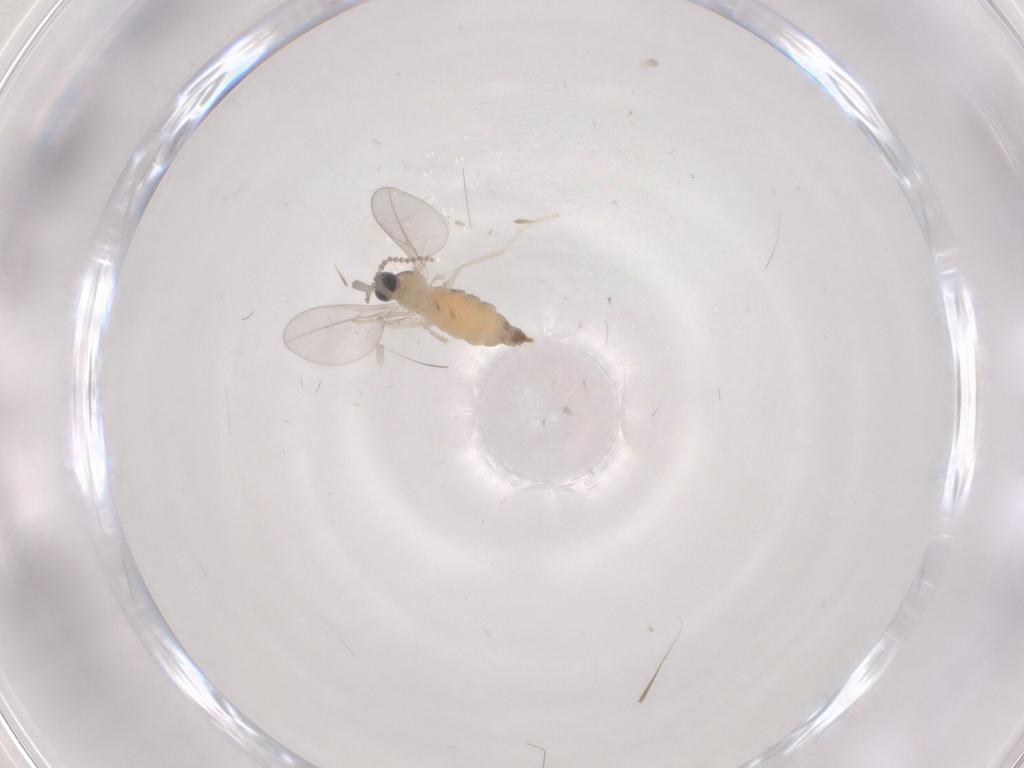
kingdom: Animalia
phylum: Arthropoda
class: Insecta
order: Diptera
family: Cecidomyiidae
